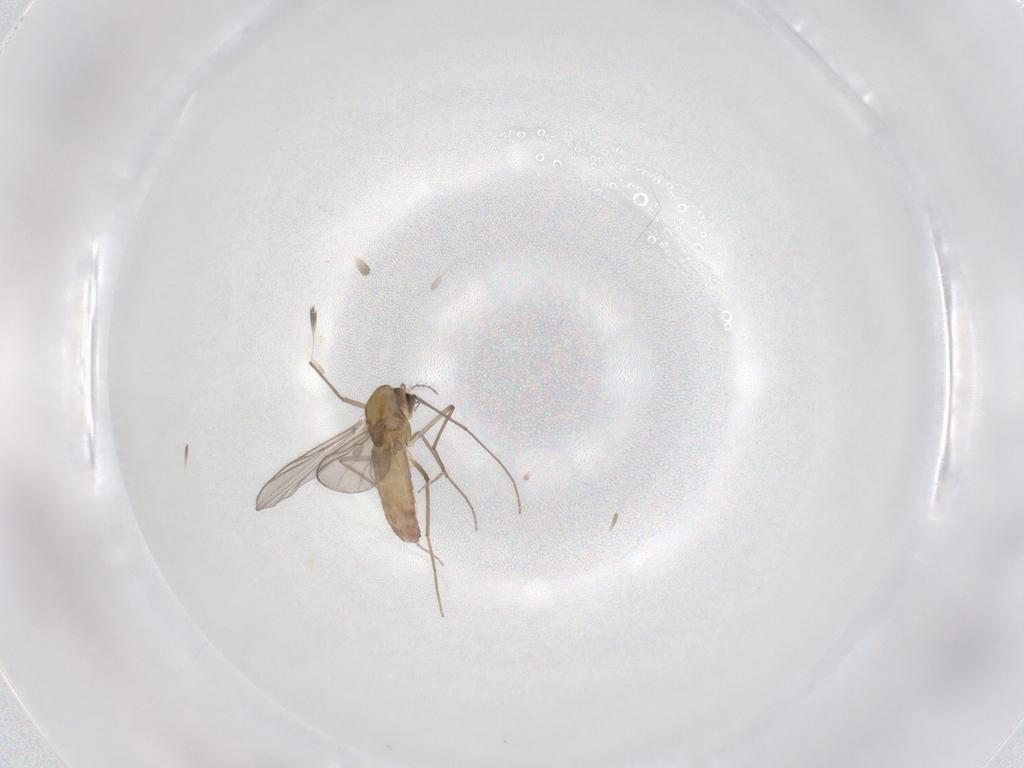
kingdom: Animalia
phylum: Arthropoda
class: Insecta
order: Diptera
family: Chironomidae
